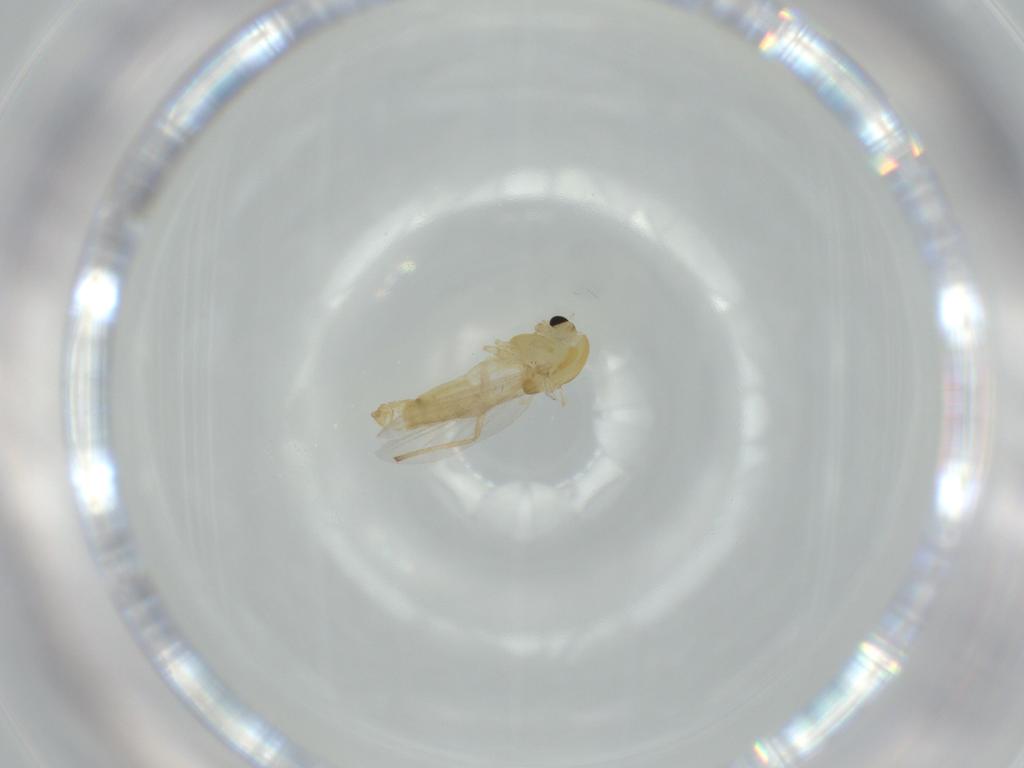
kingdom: Animalia
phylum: Arthropoda
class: Insecta
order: Diptera
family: Chironomidae
